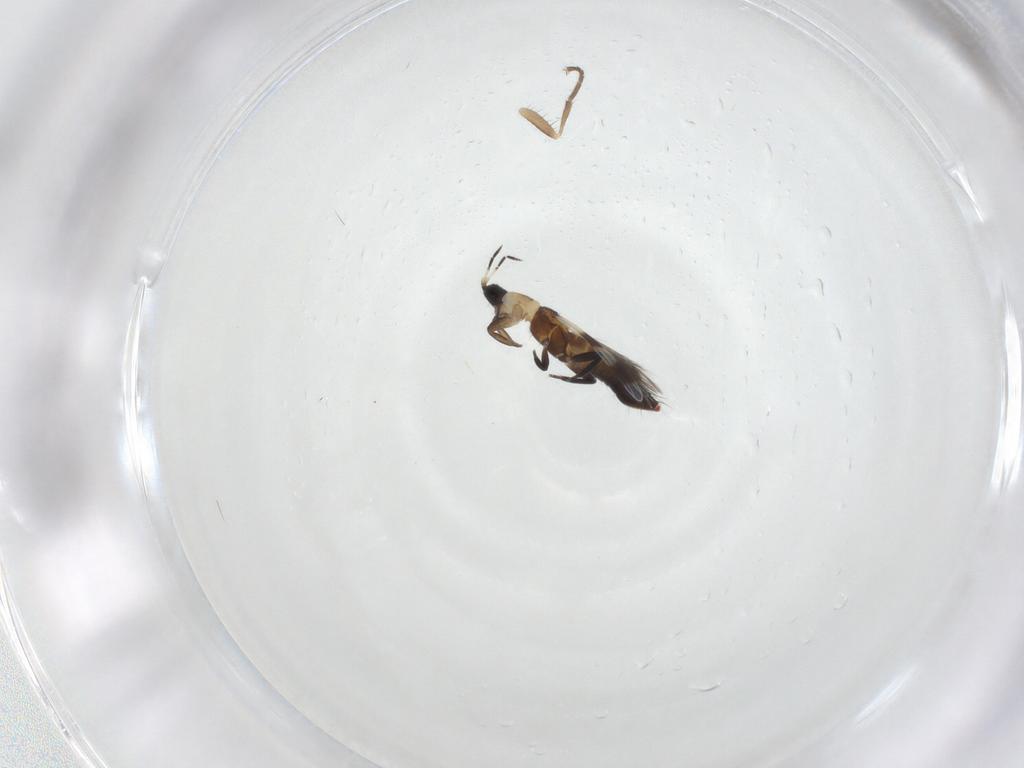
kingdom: Animalia
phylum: Arthropoda
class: Insecta
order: Thysanoptera
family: Aeolothripidae
